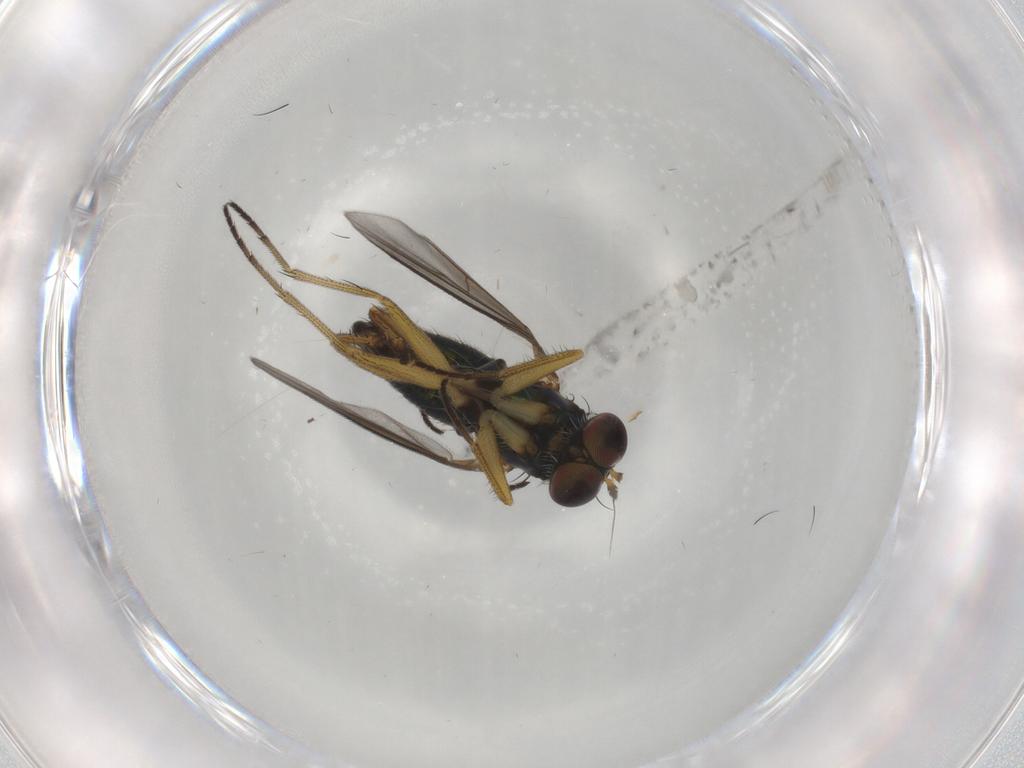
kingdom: Animalia
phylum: Arthropoda
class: Insecta
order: Diptera
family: Dolichopodidae
